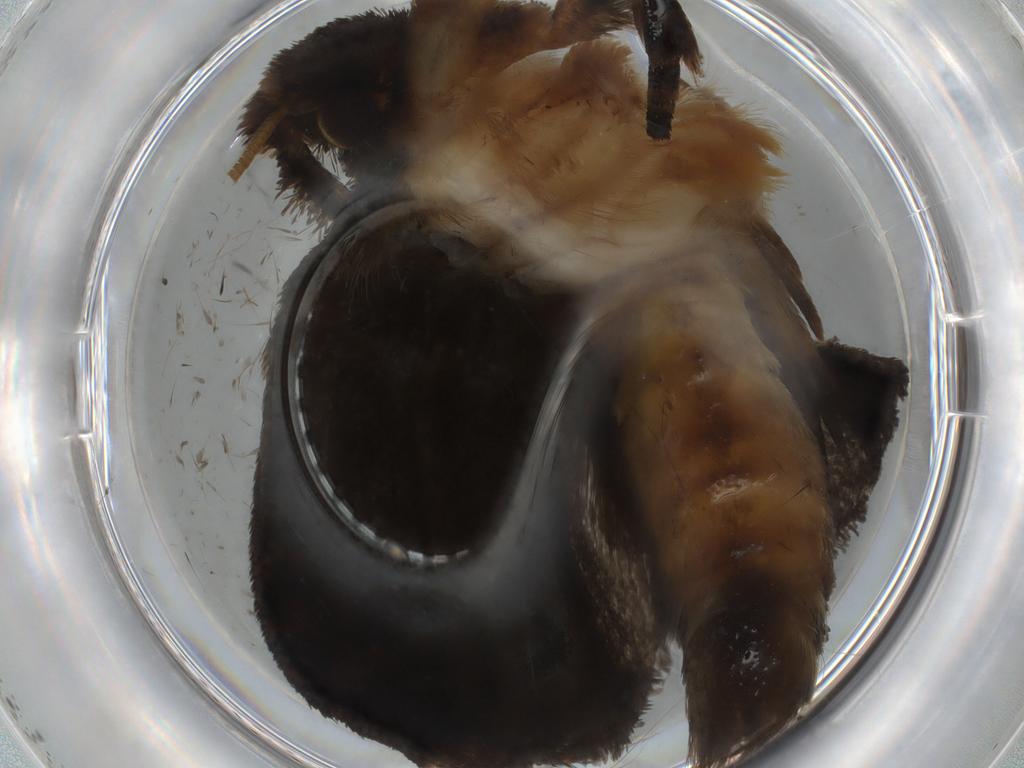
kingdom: Animalia
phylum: Arthropoda
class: Insecta
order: Lepidoptera
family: Tineidae
